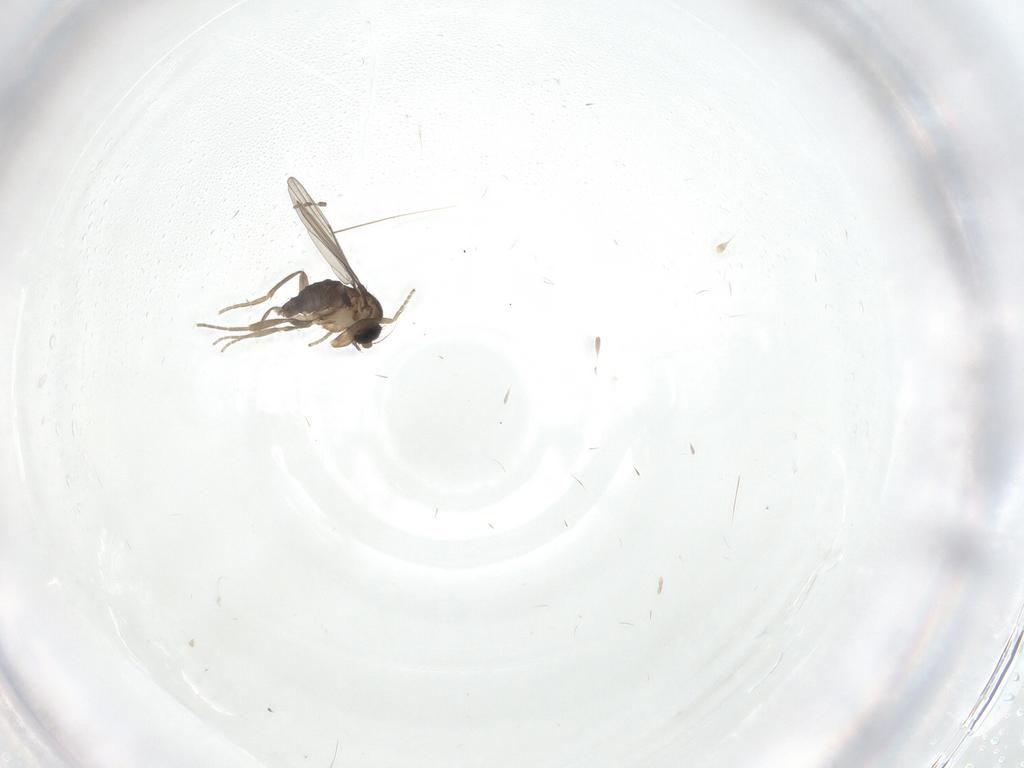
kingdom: Animalia
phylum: Arthropoda
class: Insecta
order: Diptera
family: Phoridae
